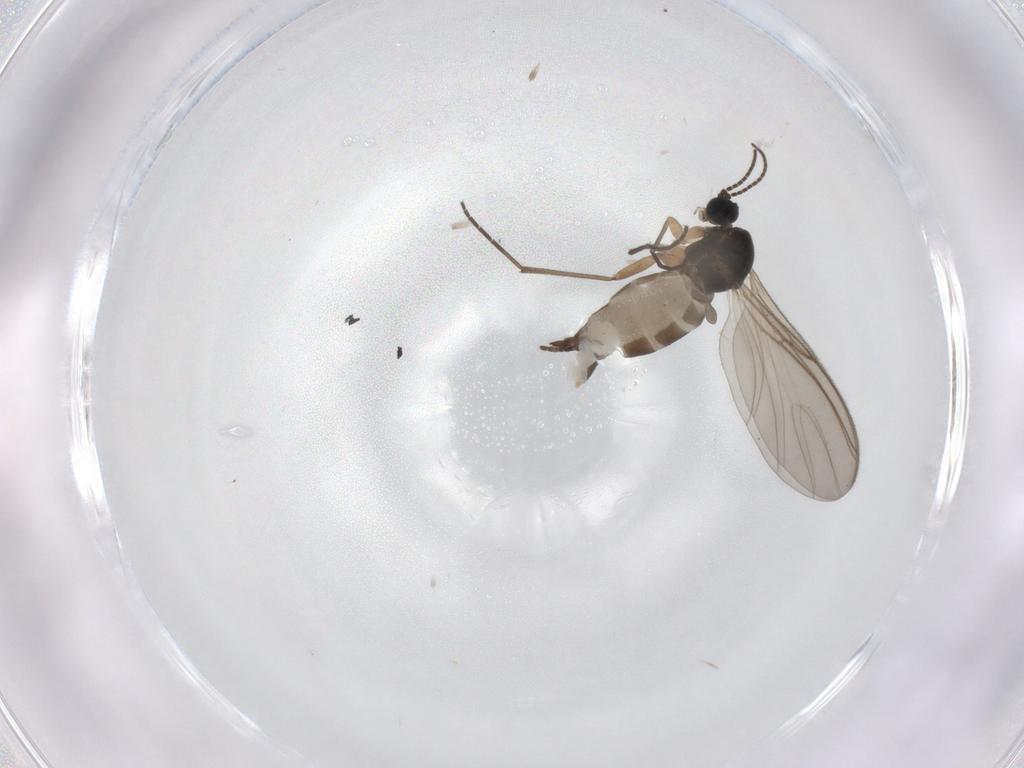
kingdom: Animalia
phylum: Arthropoda
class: Insecta
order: Diptera
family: Sciaridae
